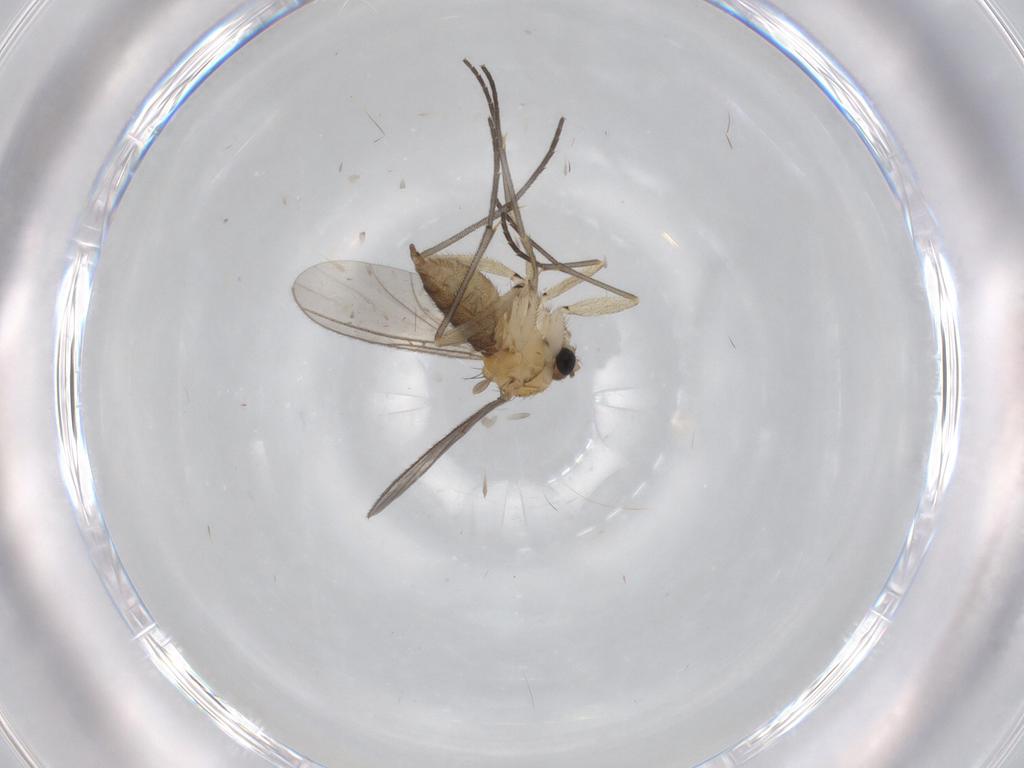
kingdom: Animalia
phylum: Arthropoda
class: Insecta
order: Diptera
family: Sciaridae
